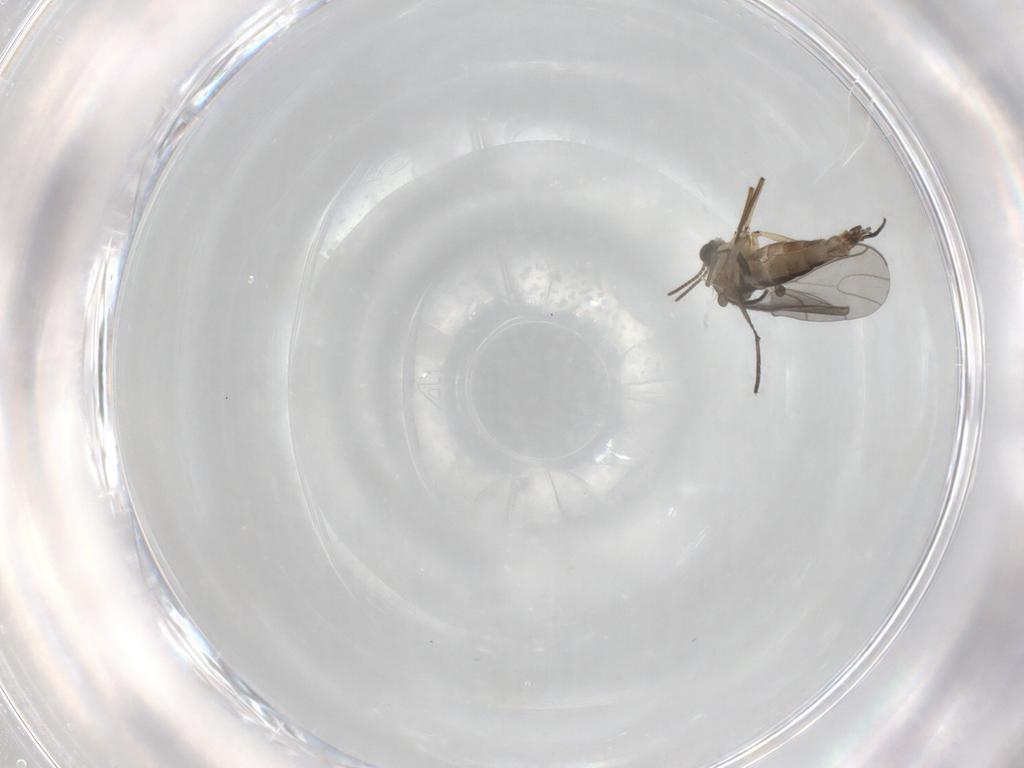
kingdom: Animalia
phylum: Arthropoda
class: Insecta
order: Diptera
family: Sciaridae
